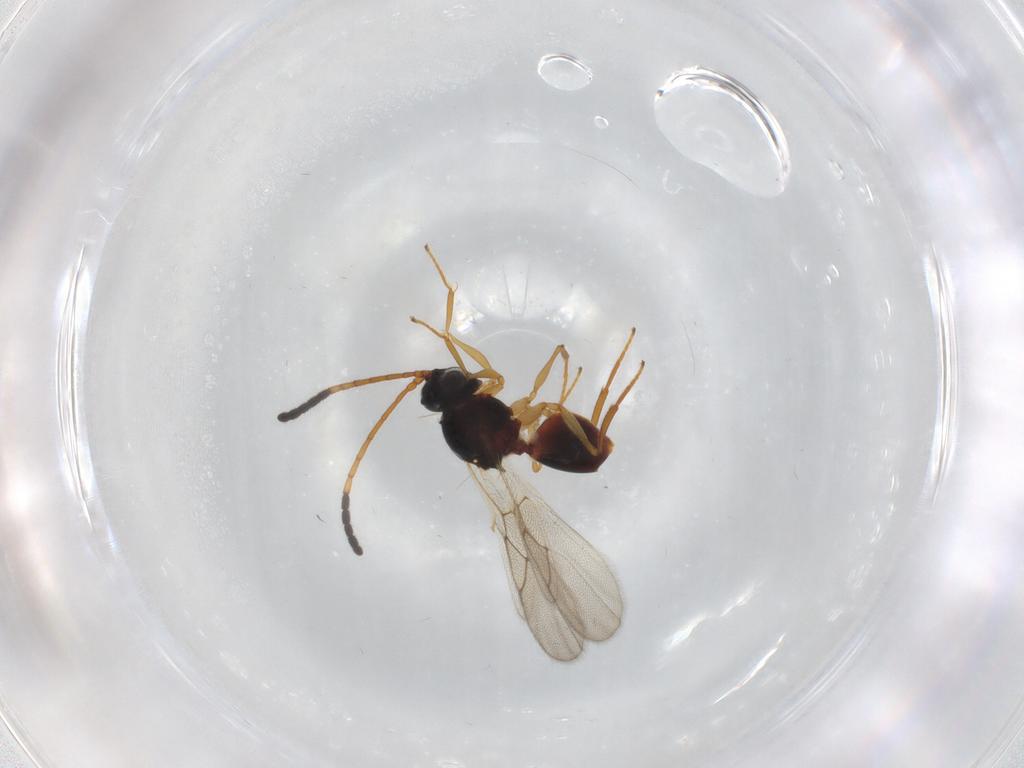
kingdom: Animalia
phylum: Arthropoda
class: Insecta
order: Hymenoptera
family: Figitidae
